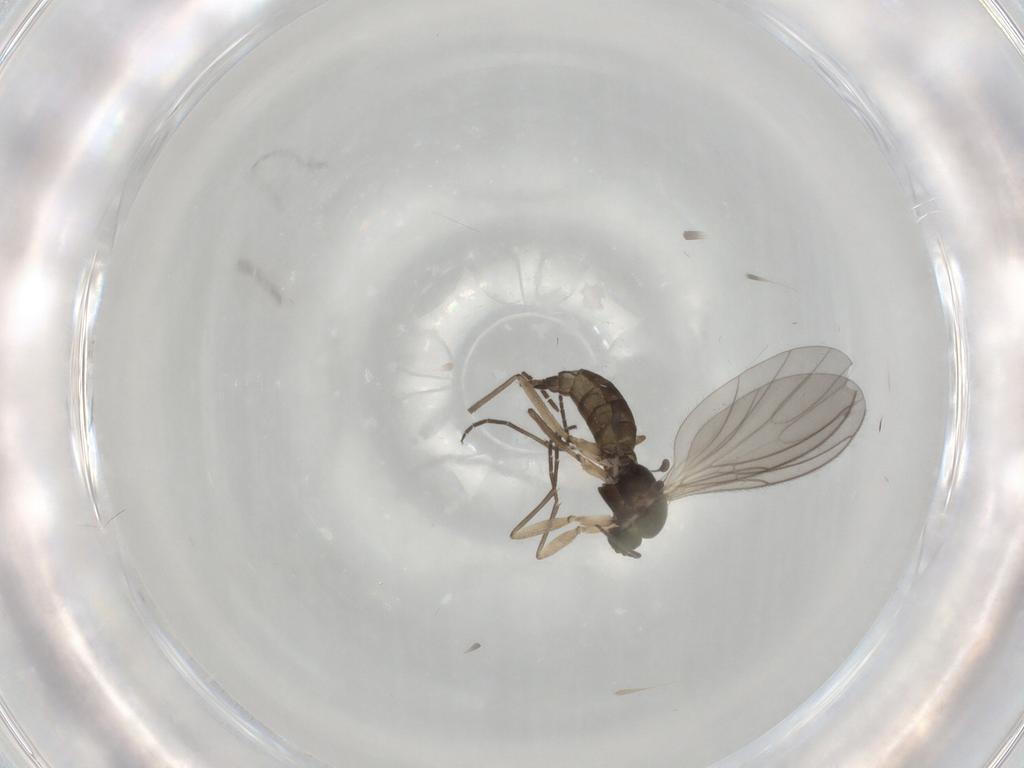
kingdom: Animalia
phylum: Arthropoda
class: Insecta
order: Diptera
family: Sciaridae
